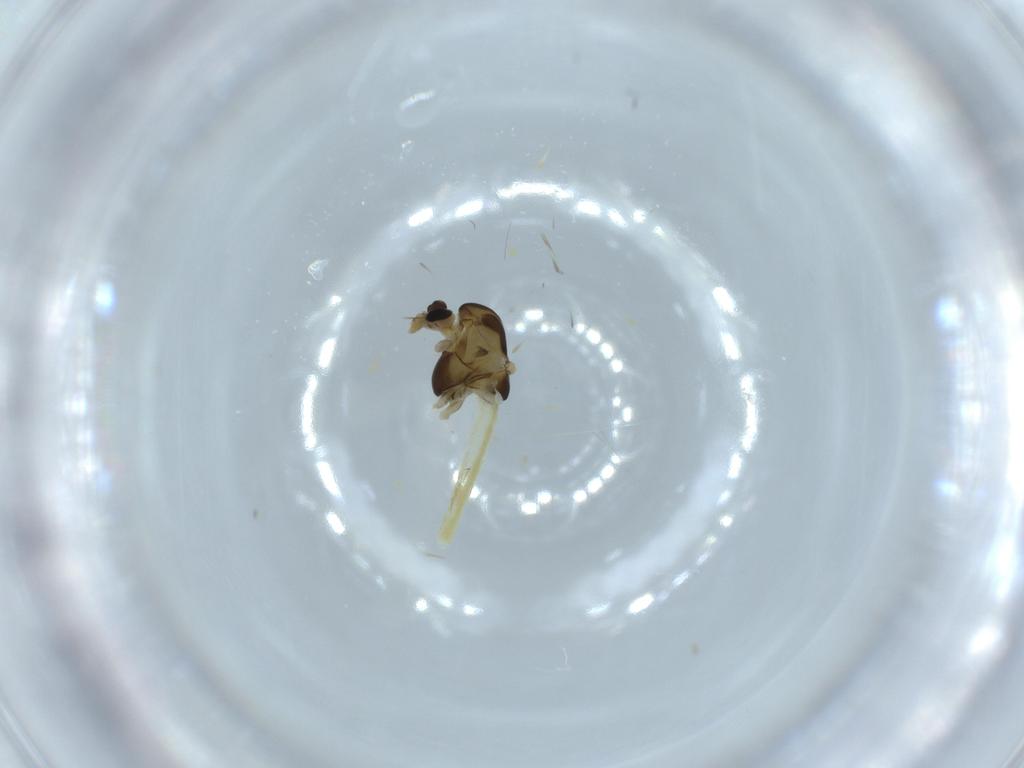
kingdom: Animalia
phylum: Arthropoda
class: Insecta
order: Diptera
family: Chironomidae
